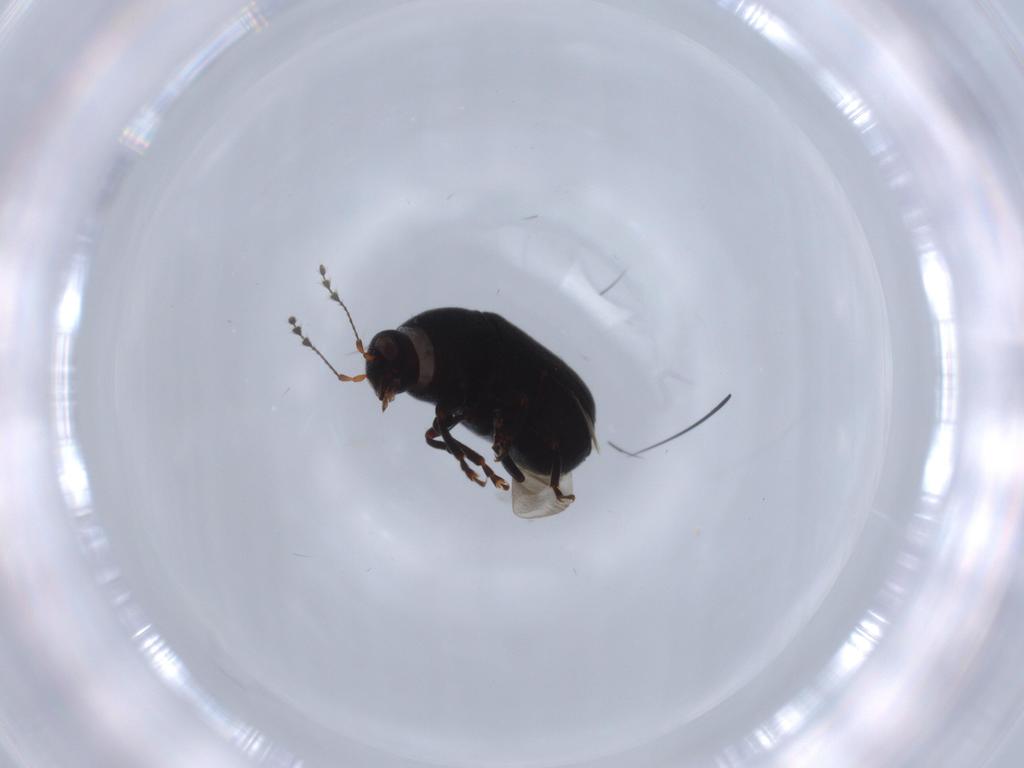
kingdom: Animalia
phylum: Arthropoda
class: Insecta
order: Coleoptera
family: Anthribidae
